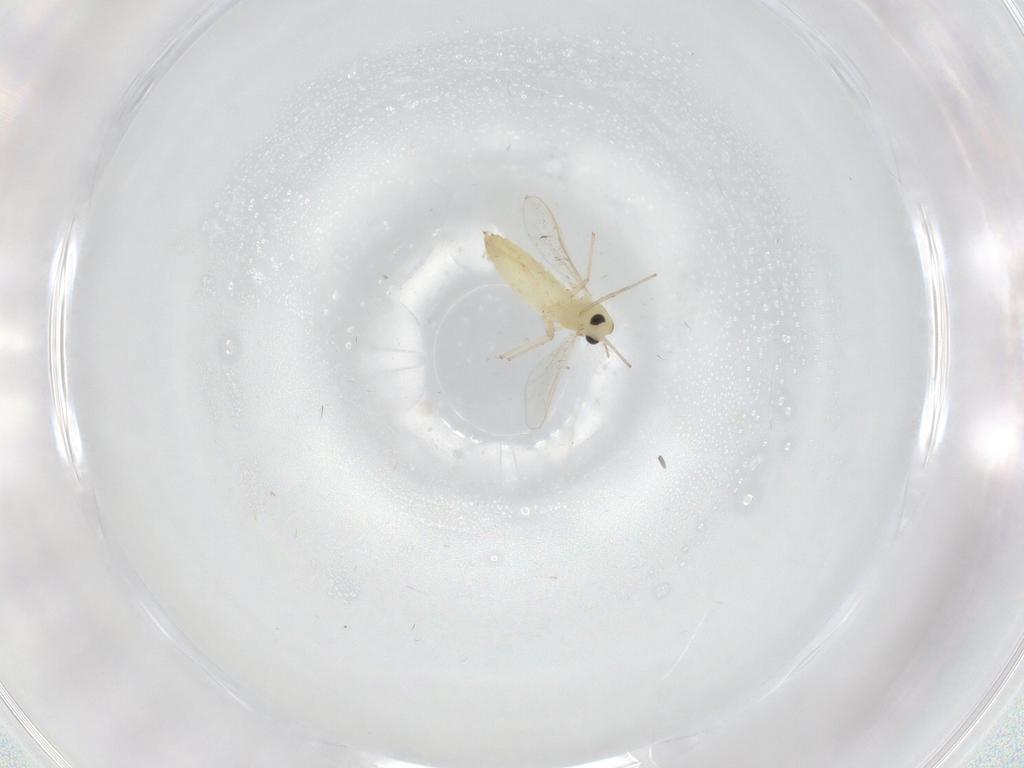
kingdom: Animalia
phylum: Arthropoda
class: Insecta
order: Diptera
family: Chironomidae
